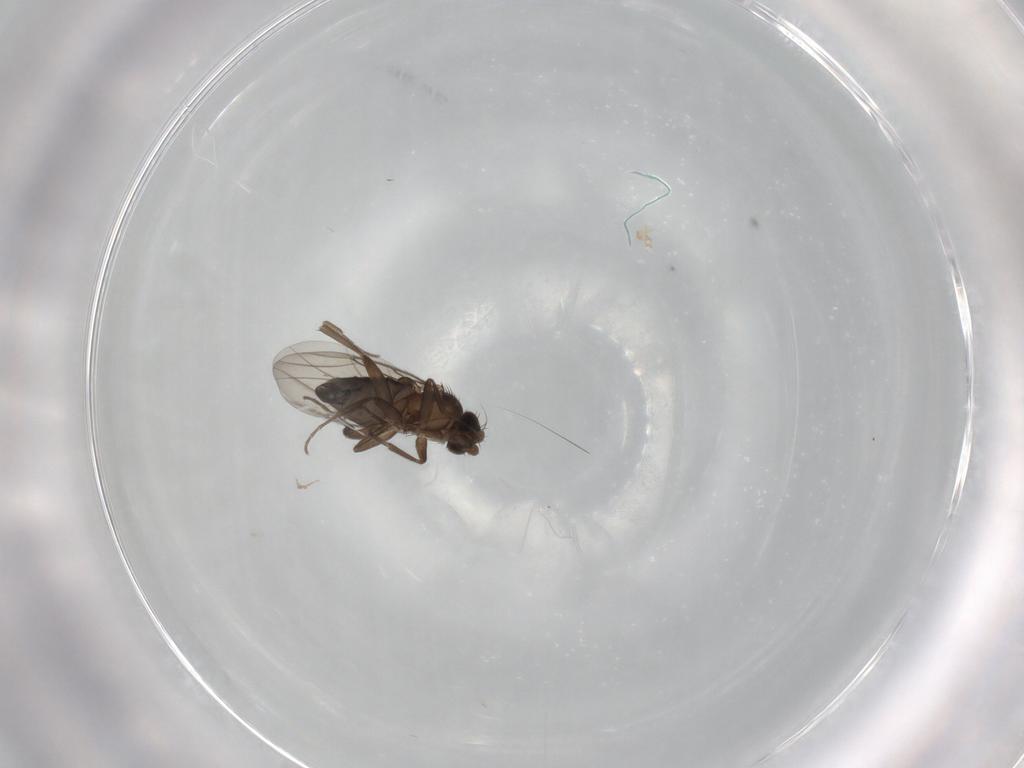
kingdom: Animalia
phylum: Arthropoda
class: Insecta
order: Diptera
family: Phoridae
